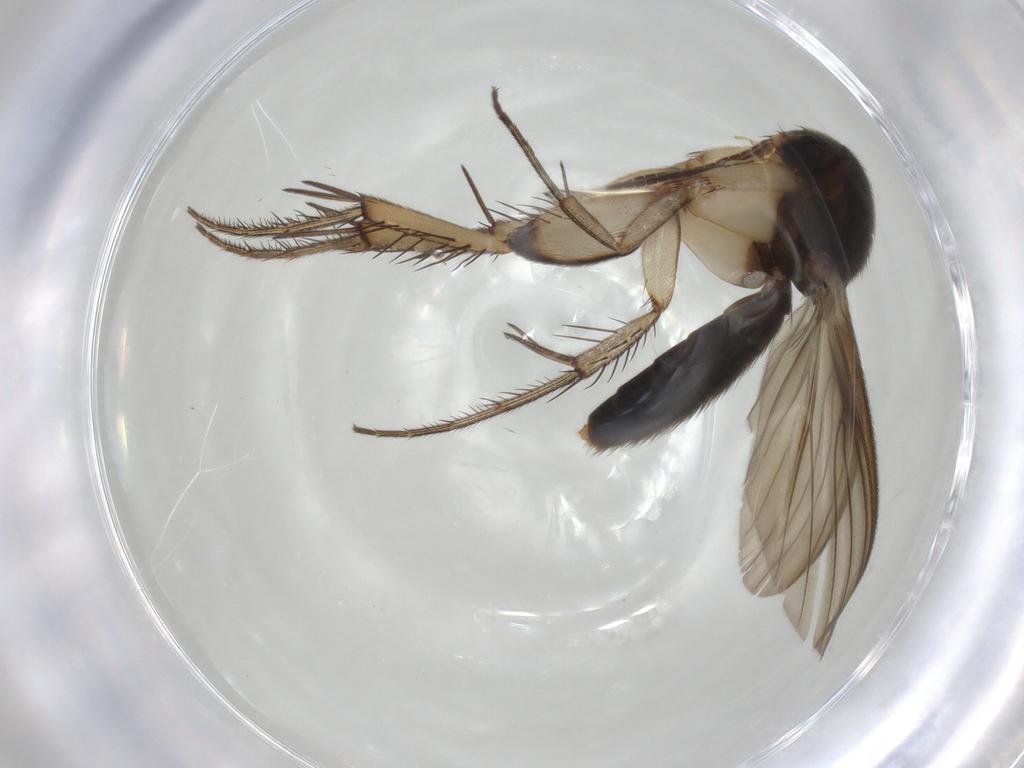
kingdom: Animalia
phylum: Arthropoda
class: Insecta
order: Diptera
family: Mycetophilidae
